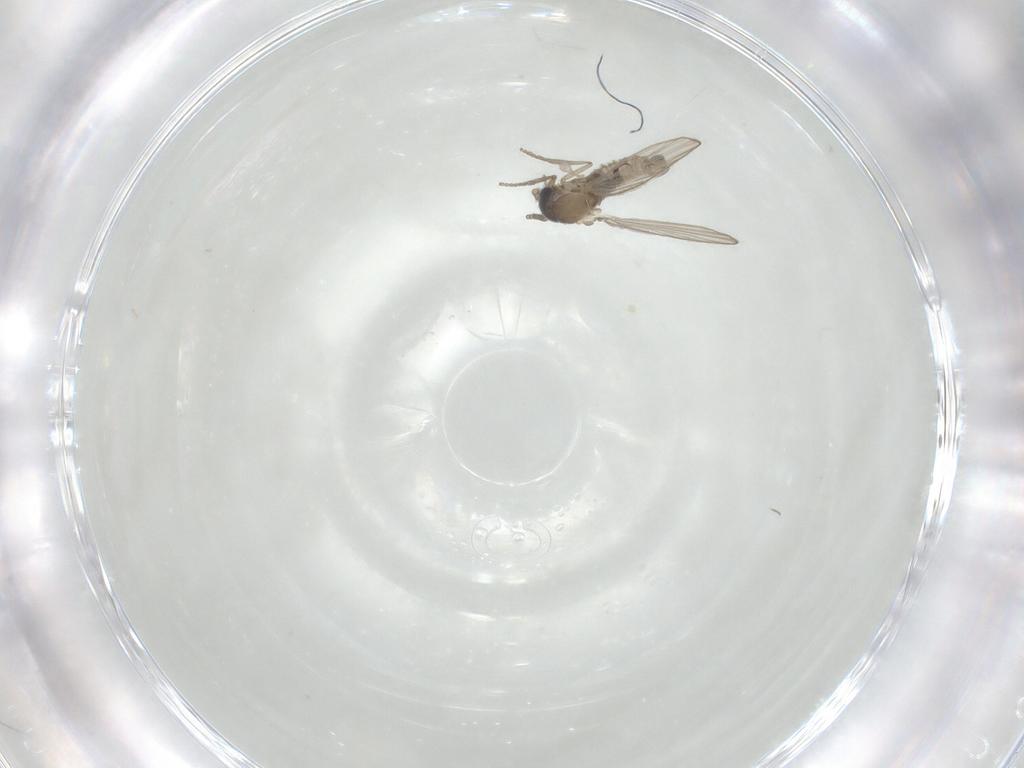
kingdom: Animalia
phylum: Arthropoda
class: Insecta
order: Diptera
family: Psychodidae
